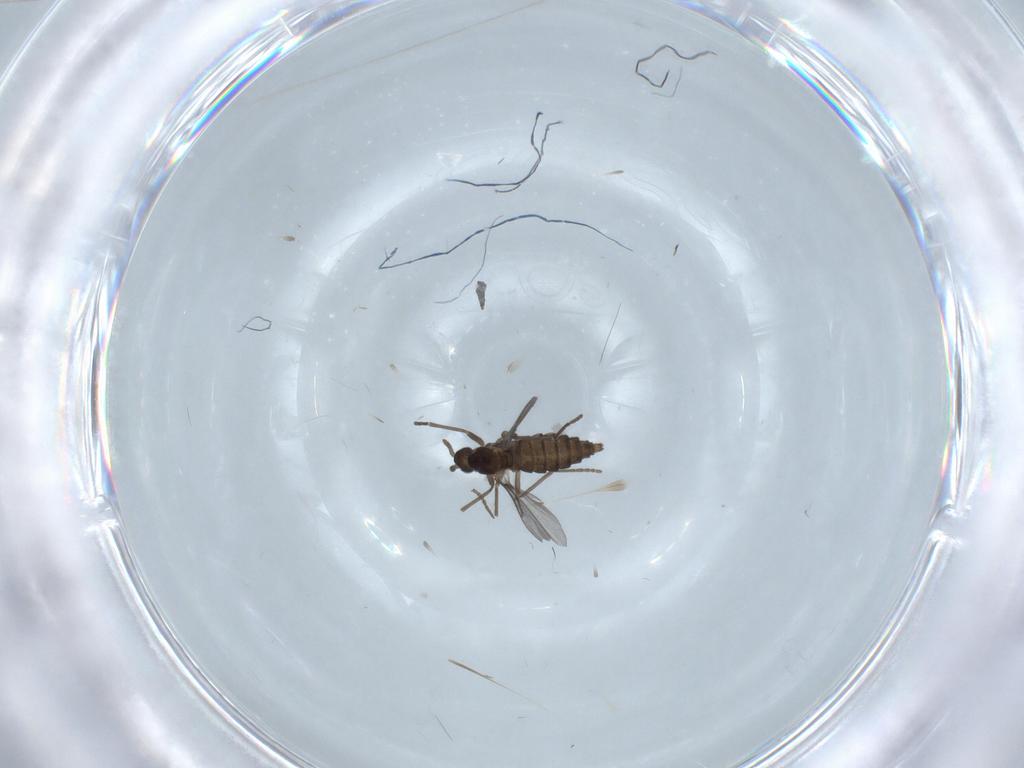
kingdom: Animalia
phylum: Arthropoda
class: Insecta
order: Diptera
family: Cecidomyiidae
